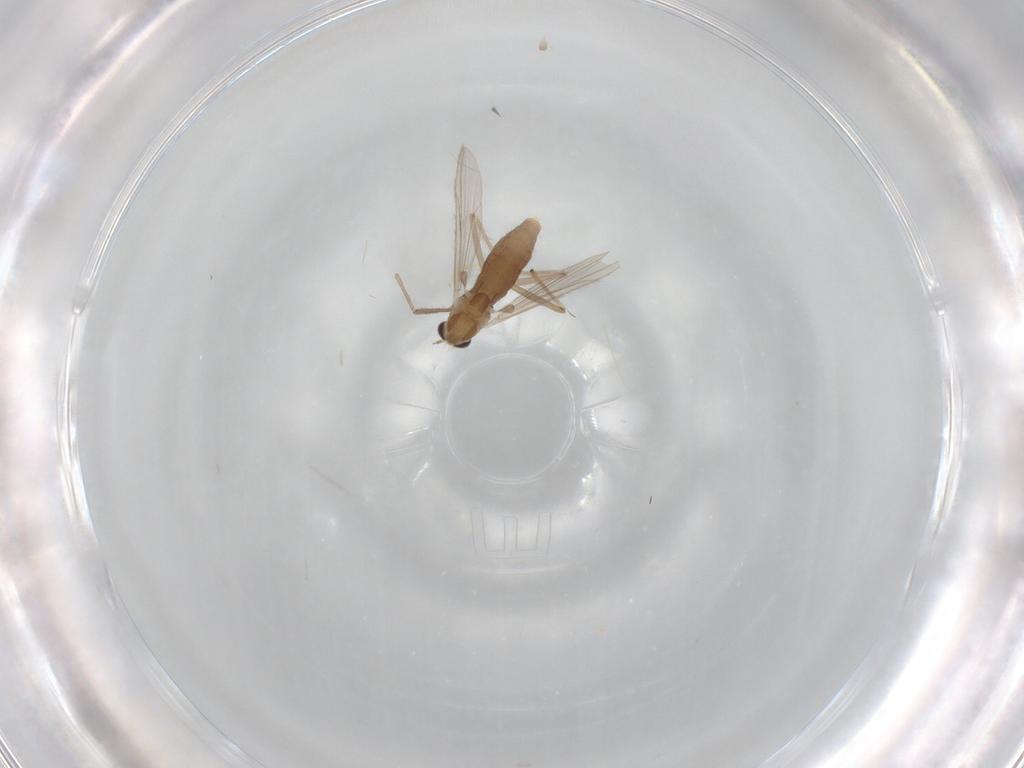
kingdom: Animalia
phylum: Arthropoda
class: Insecta
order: Diptera
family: Chironomidae
